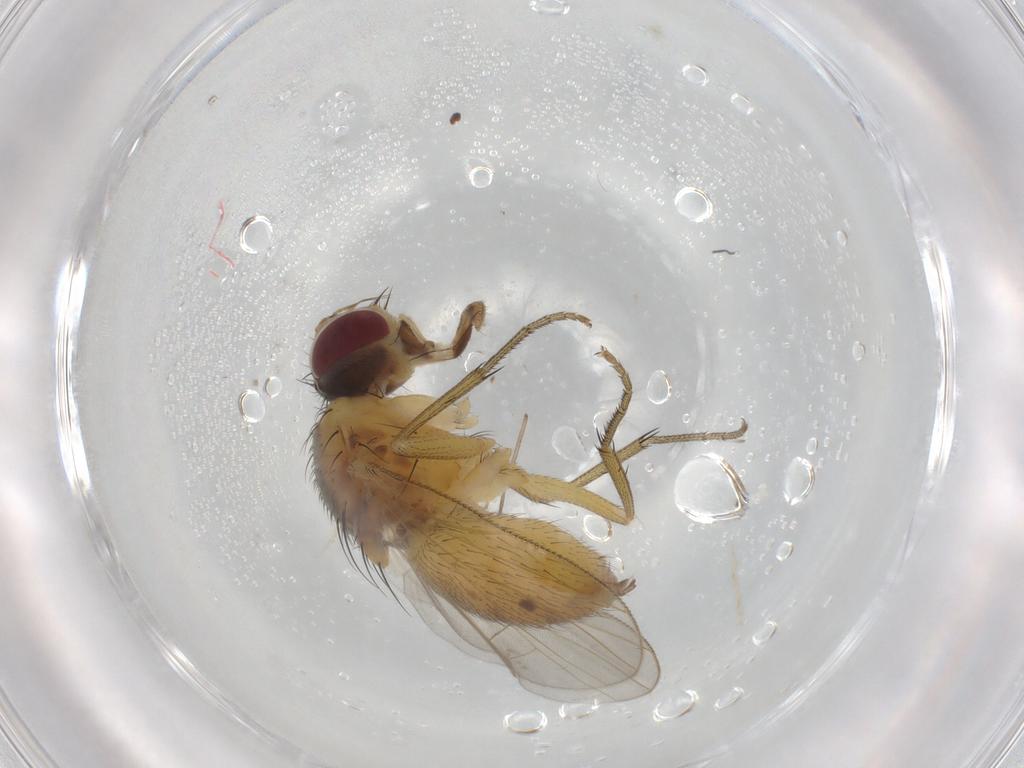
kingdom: Animalia
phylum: Arthropoda
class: Insecta
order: Diptera
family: Muscidae
